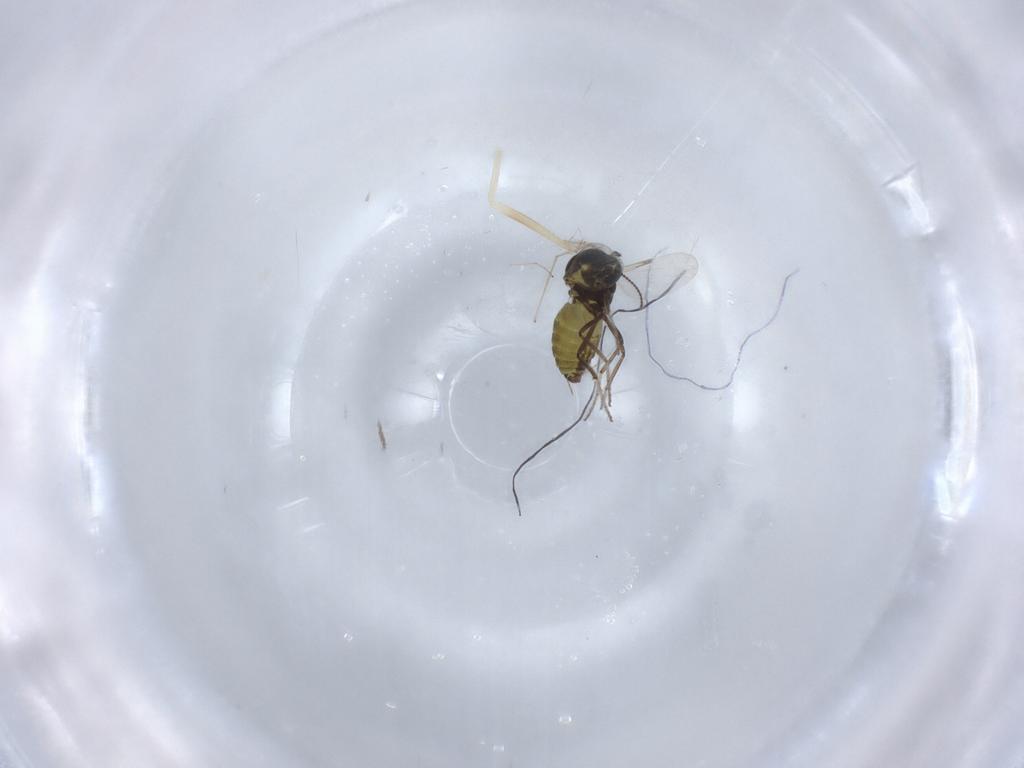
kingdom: Animalia
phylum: Arthropoda
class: Insecta
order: Diptera
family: Ceratopogonidae
